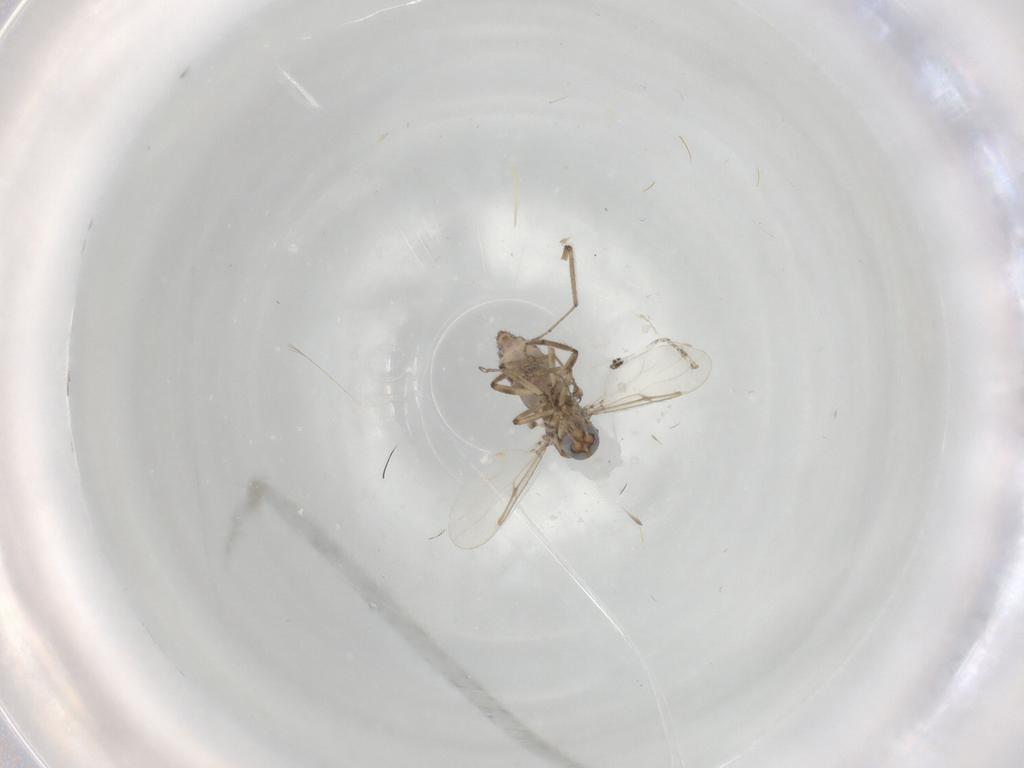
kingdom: Animalia
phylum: Arthropoda
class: Insecta
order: Diptera
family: Ceratopogonidae
